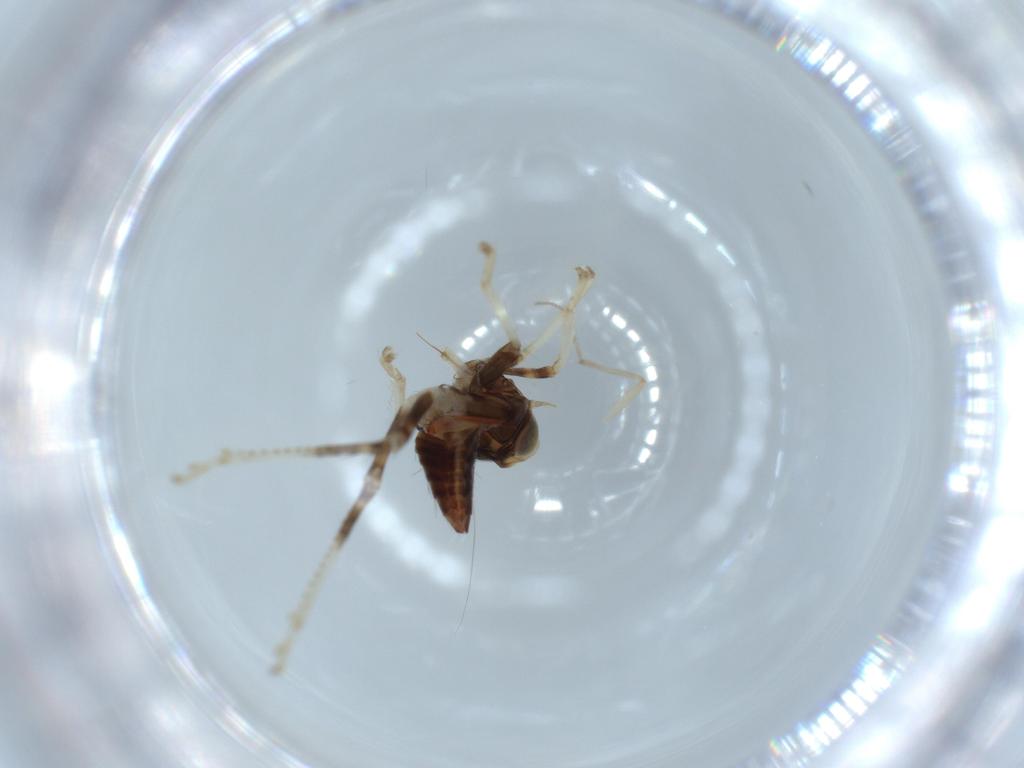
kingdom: Animalia
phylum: Arthropoda
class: Insecta
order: Hemiptera
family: Cicadellidae
